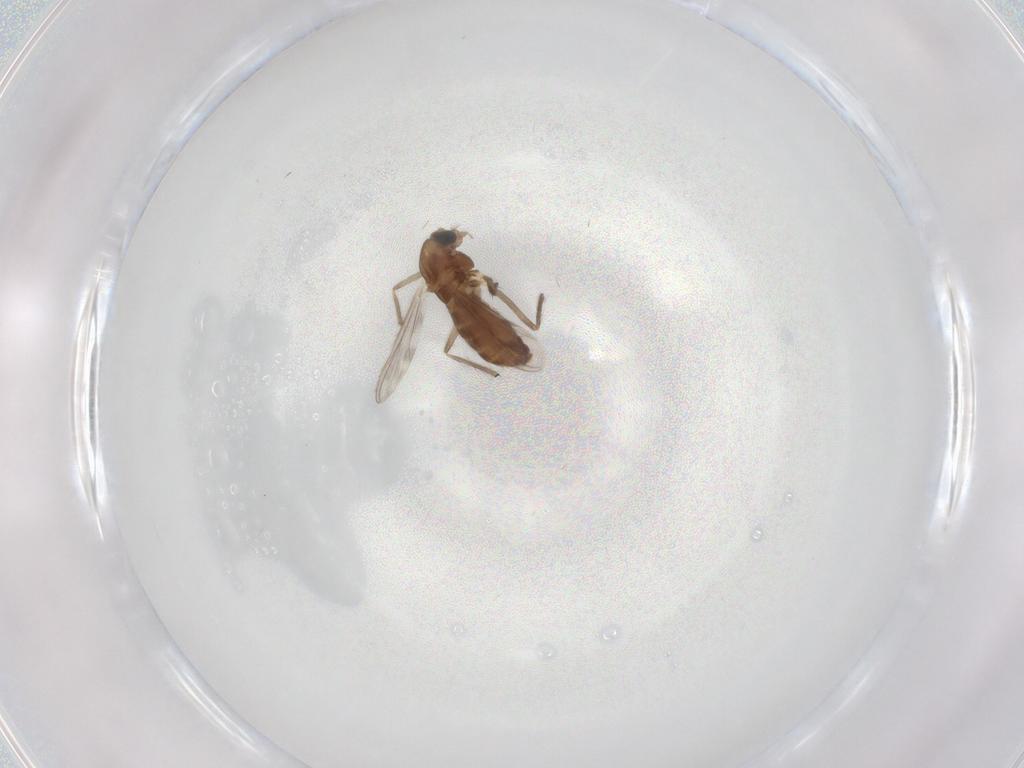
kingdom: Animalia
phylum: Arthropoda
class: Insecta
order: Diptera
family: Chironomidae
